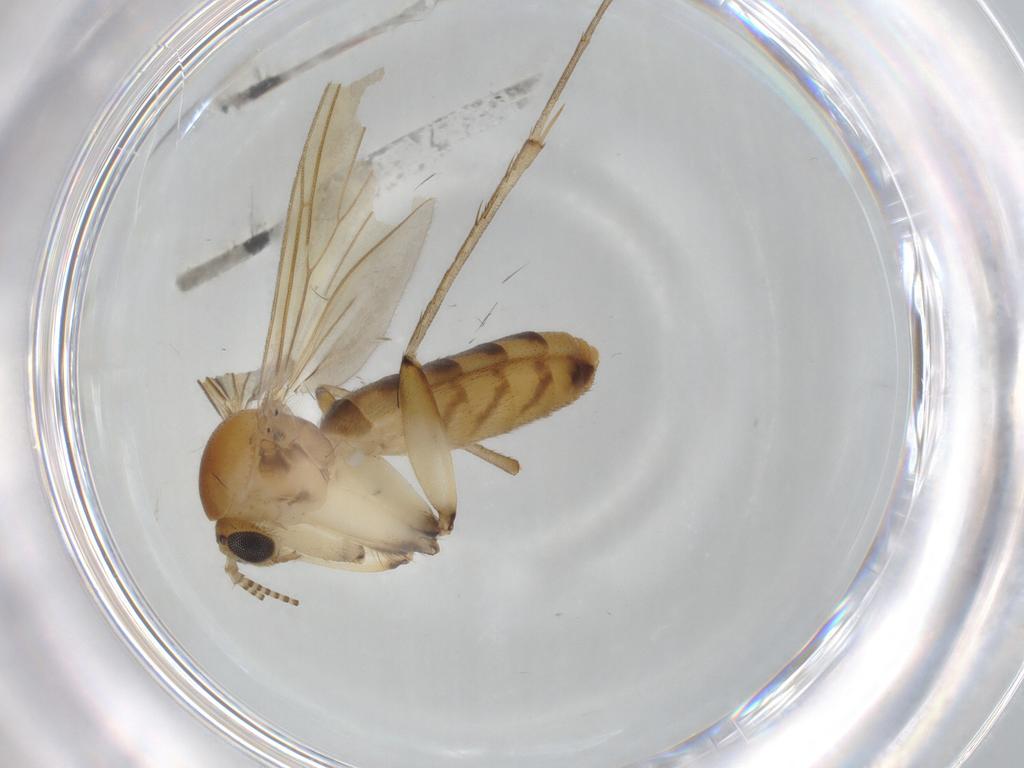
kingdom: Animalia
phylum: Arthropoda
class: Insecta
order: Diptera
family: Mycetophilidae
